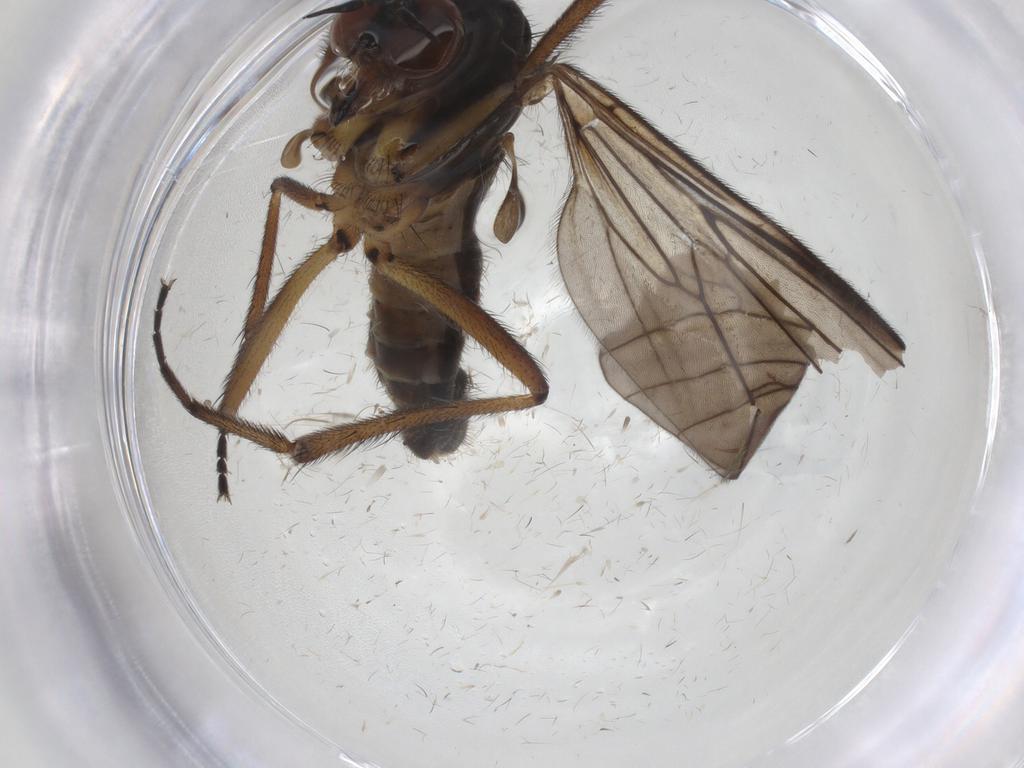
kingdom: Animalia
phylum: Arthropoda
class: Insecta
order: Diptera
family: Empididae
